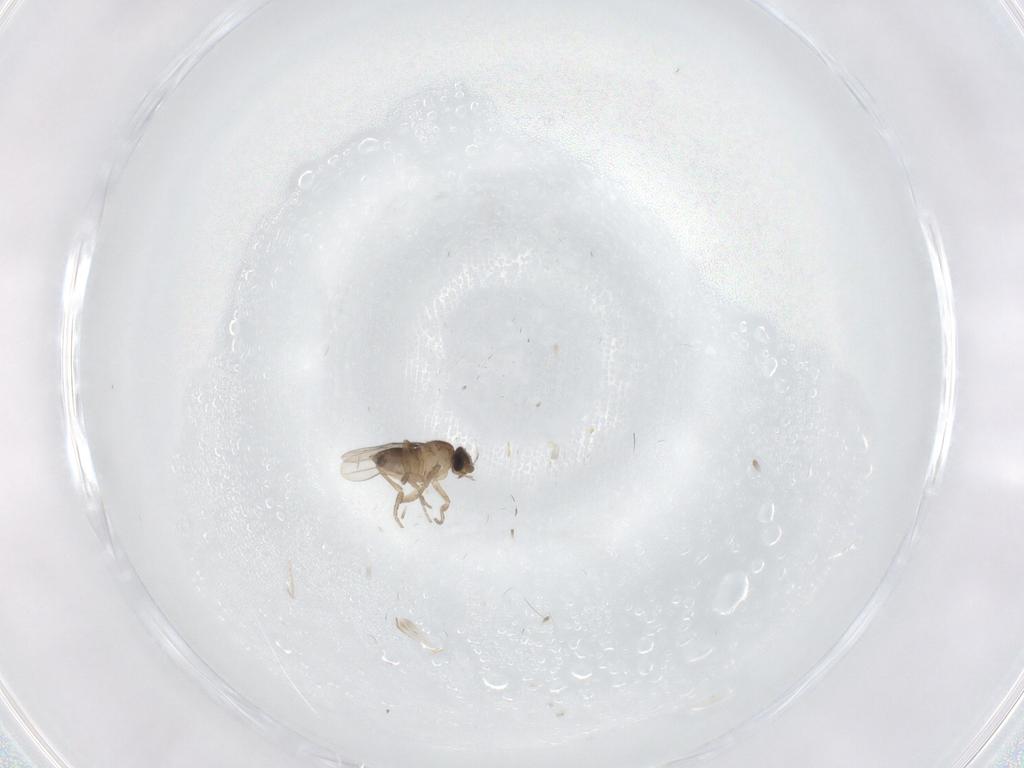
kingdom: Animalia
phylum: Arthropoda
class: Insecta
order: Diptera
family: Phoridae
